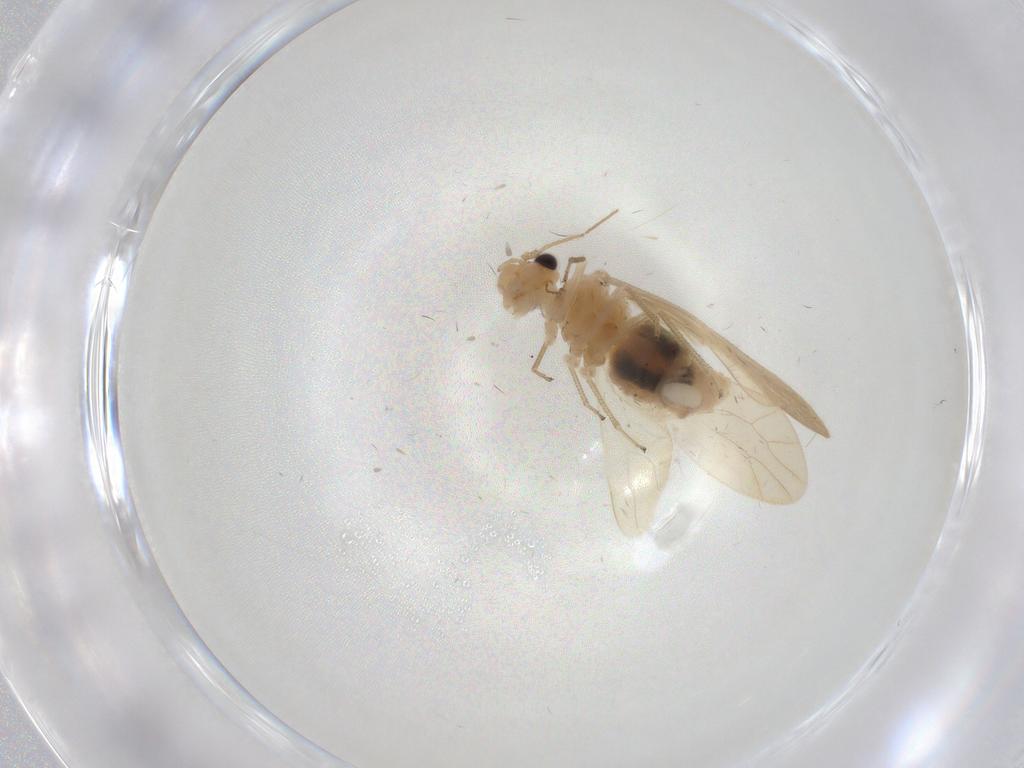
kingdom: Animalia
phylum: Arthropoda
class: Insecta
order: Psocodea
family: Caeciliusidae
